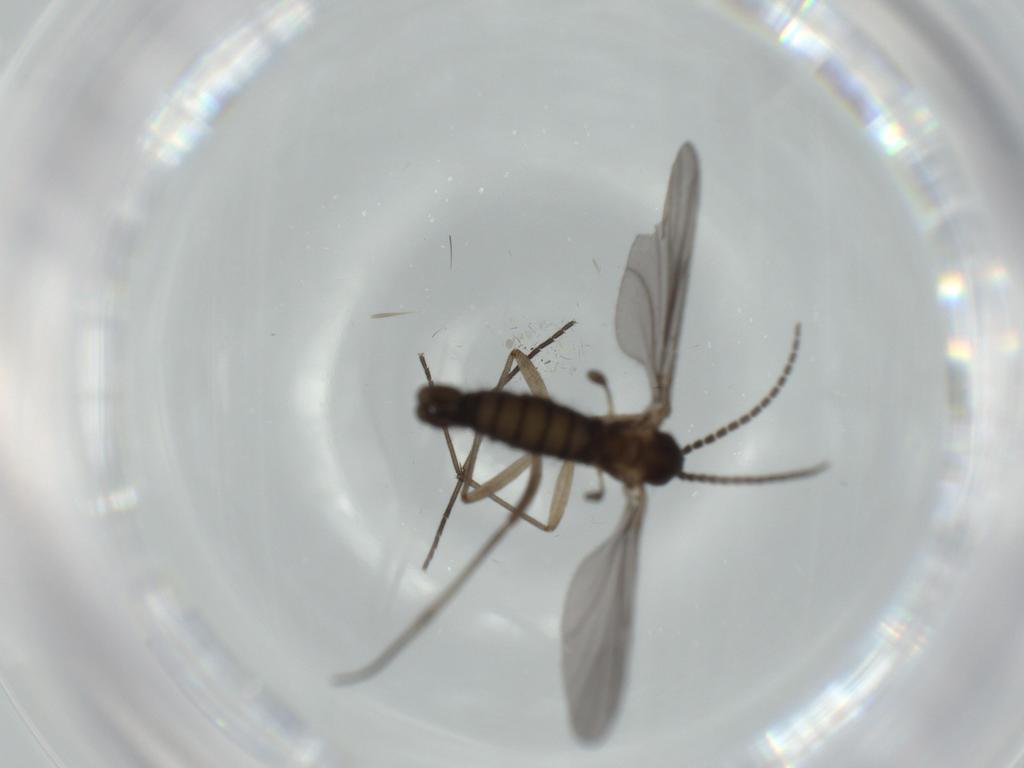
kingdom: Animalia
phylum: Arthropoda
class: Insecta
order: Diptera
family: Sciaridae
